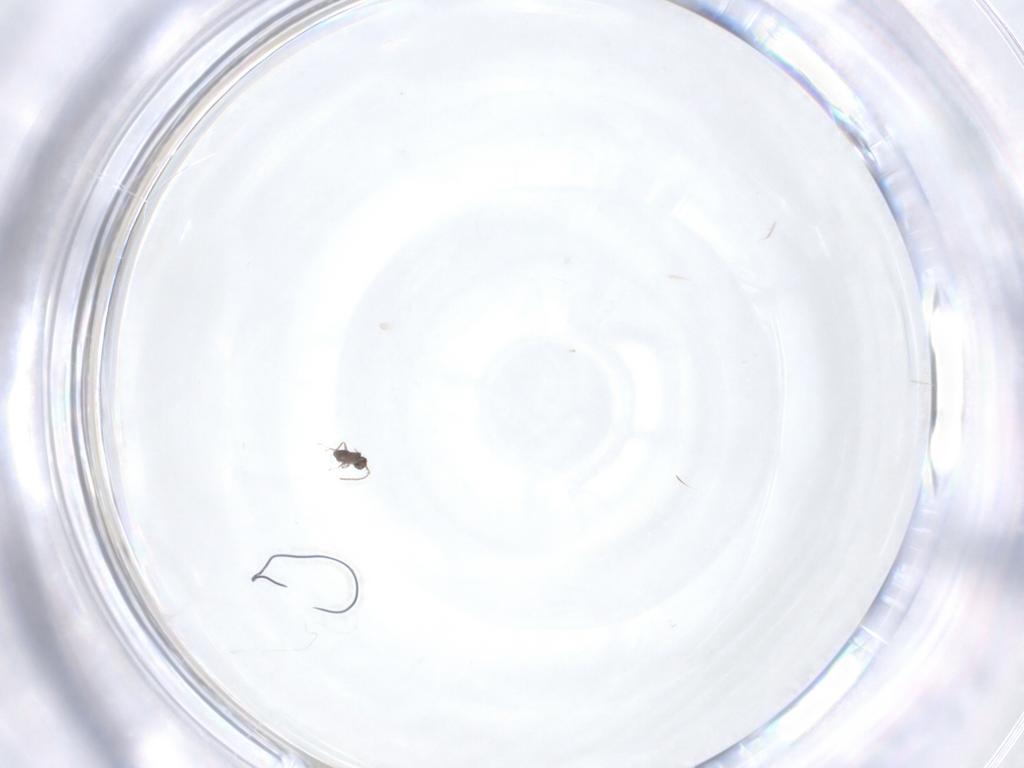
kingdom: Animalia
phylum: Arthropoda
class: Insecta
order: Hymenoptera
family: Mymaridae
